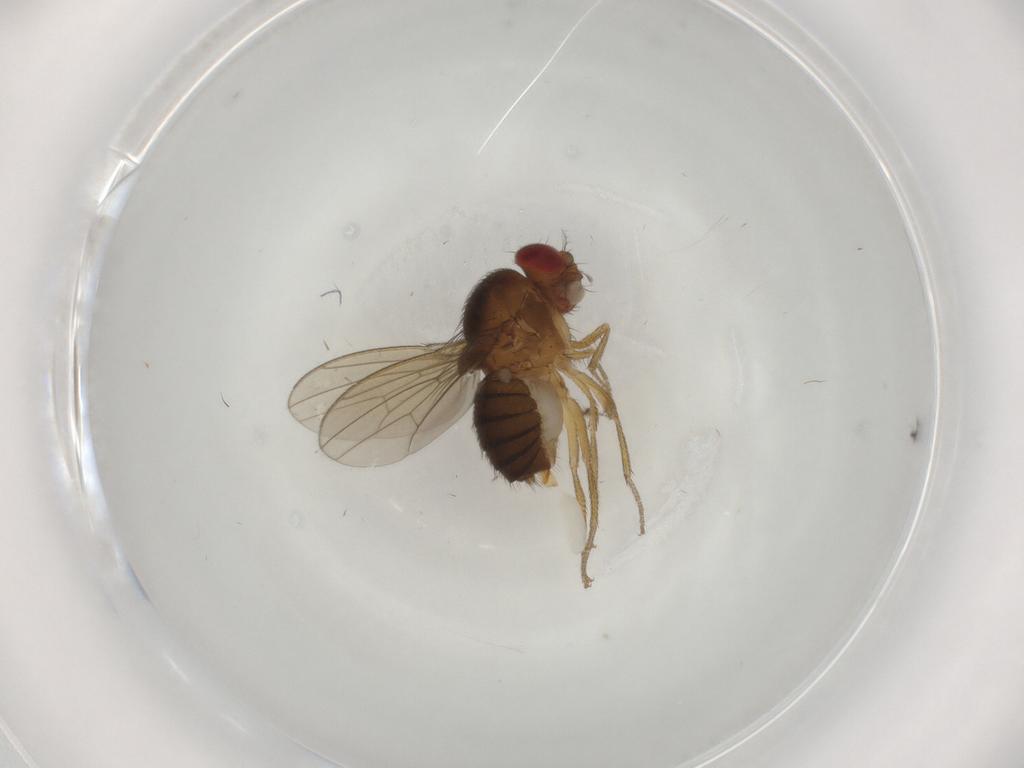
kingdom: Animalia
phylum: Arthropoda
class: Insecta
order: Diptera
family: Drosophilidae
